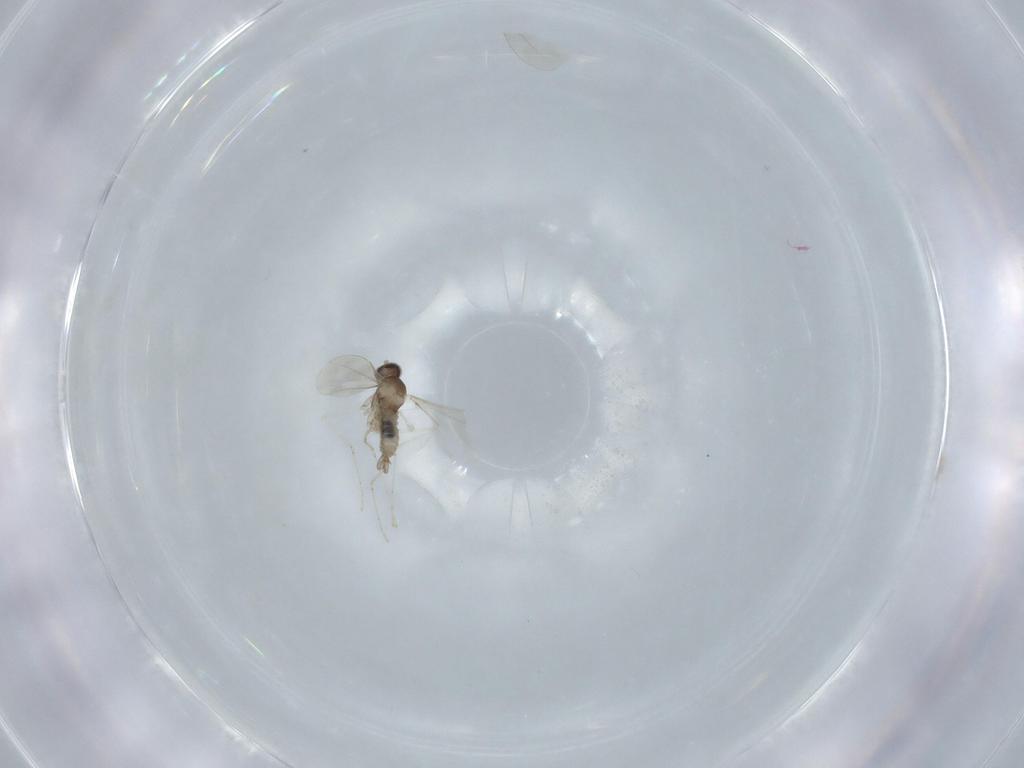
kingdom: Animalia
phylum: Arthropoda
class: Insecta
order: Diptera
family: Cecidomyiidae
